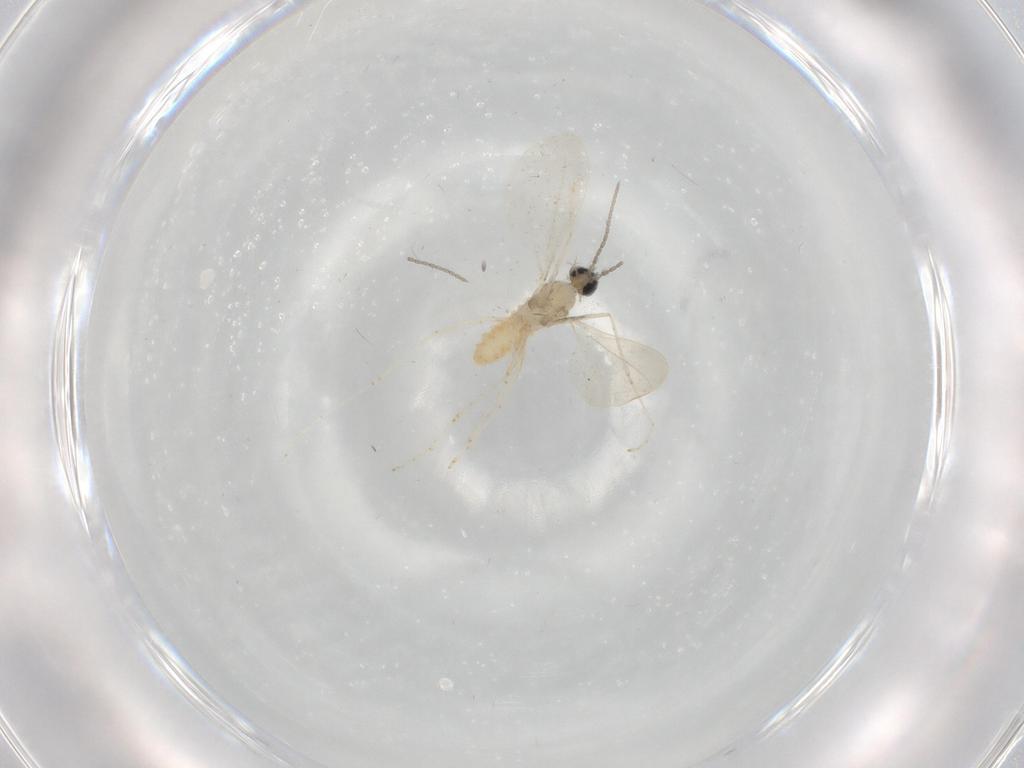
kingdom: Animalia
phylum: Arthropoda
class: Insecta
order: Diptera
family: Cecidomyiidae
